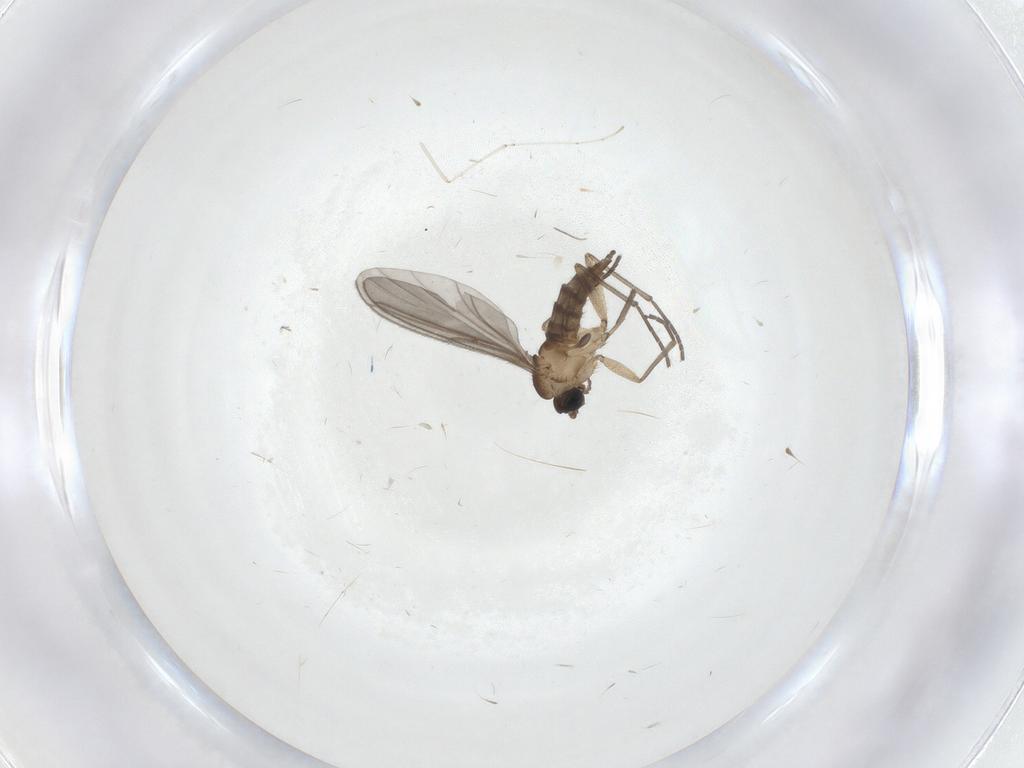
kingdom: Animalia
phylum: Arthropoda
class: Insecta
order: Diptera
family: Chironomidae
